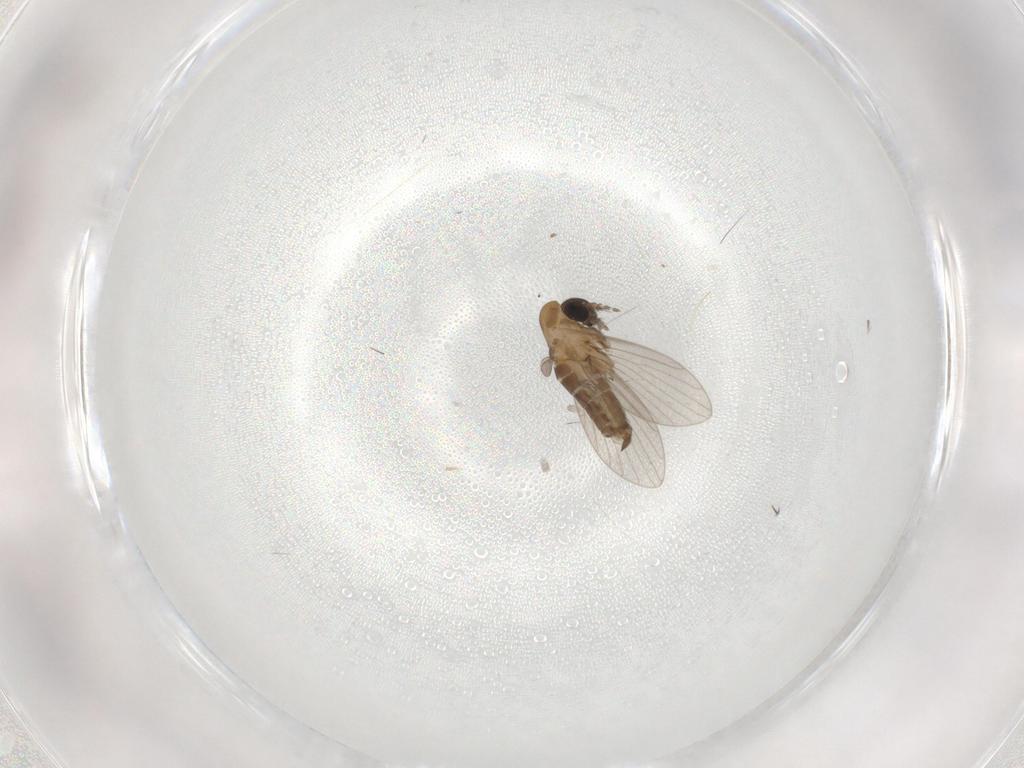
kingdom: Animalia
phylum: Arthropoda
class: Insecta
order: Diptera
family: Psychodidae
